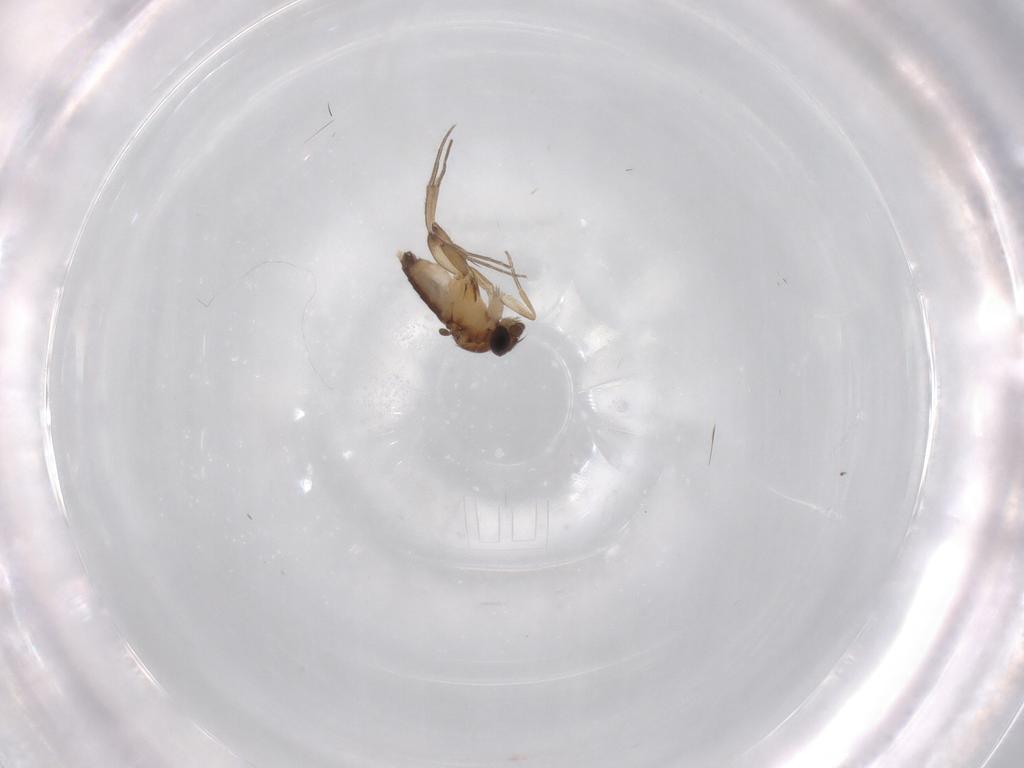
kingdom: Animalia
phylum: Arthropoda
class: Insecta
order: Diptera
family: Phoridae
